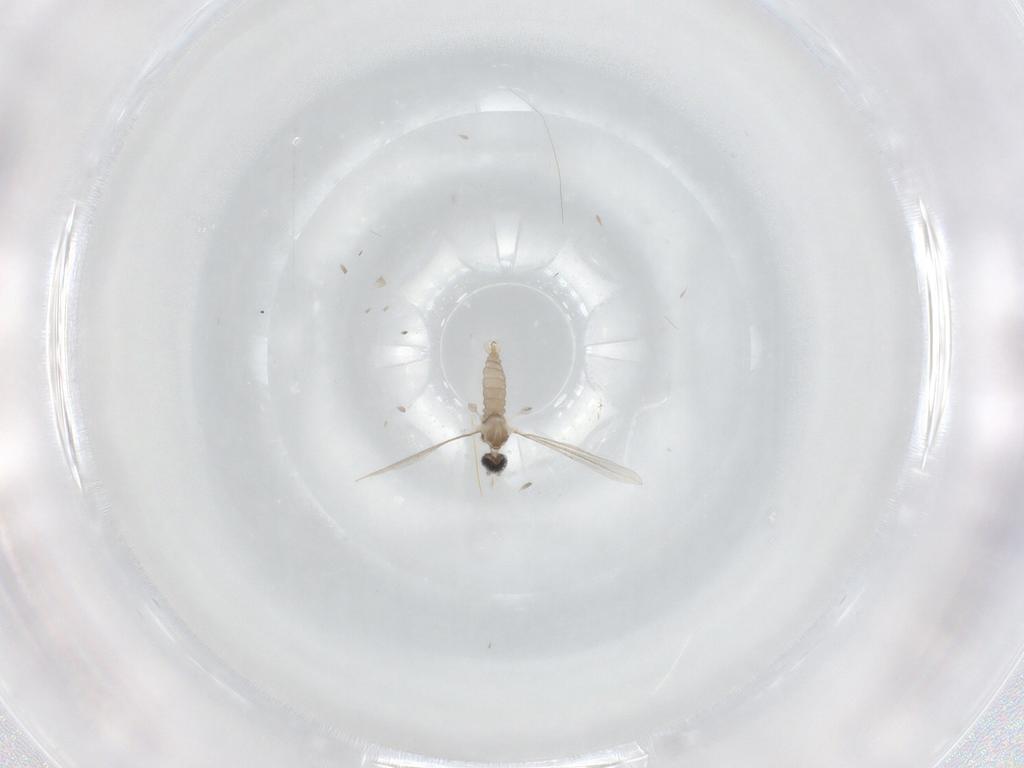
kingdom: Animalia
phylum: Arthropoda
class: Insecta
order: Diptera
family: Cecidomyiidae
